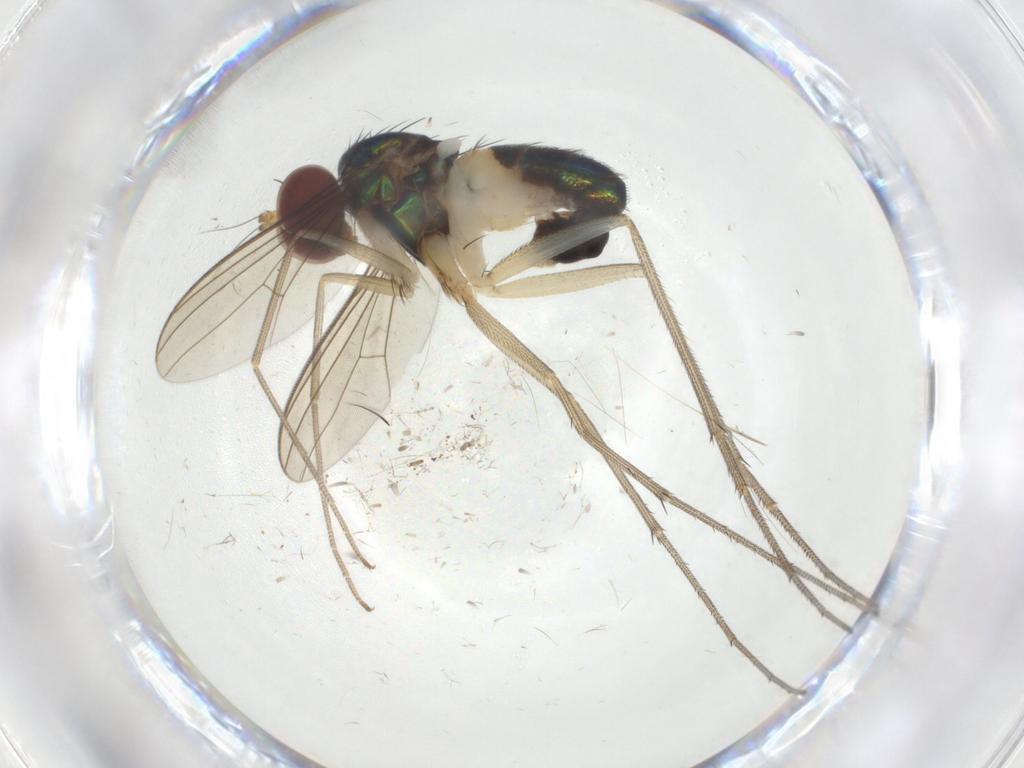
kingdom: Animalia
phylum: Arthropoda
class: Insecta
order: Diptera
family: Dolichopodidae
